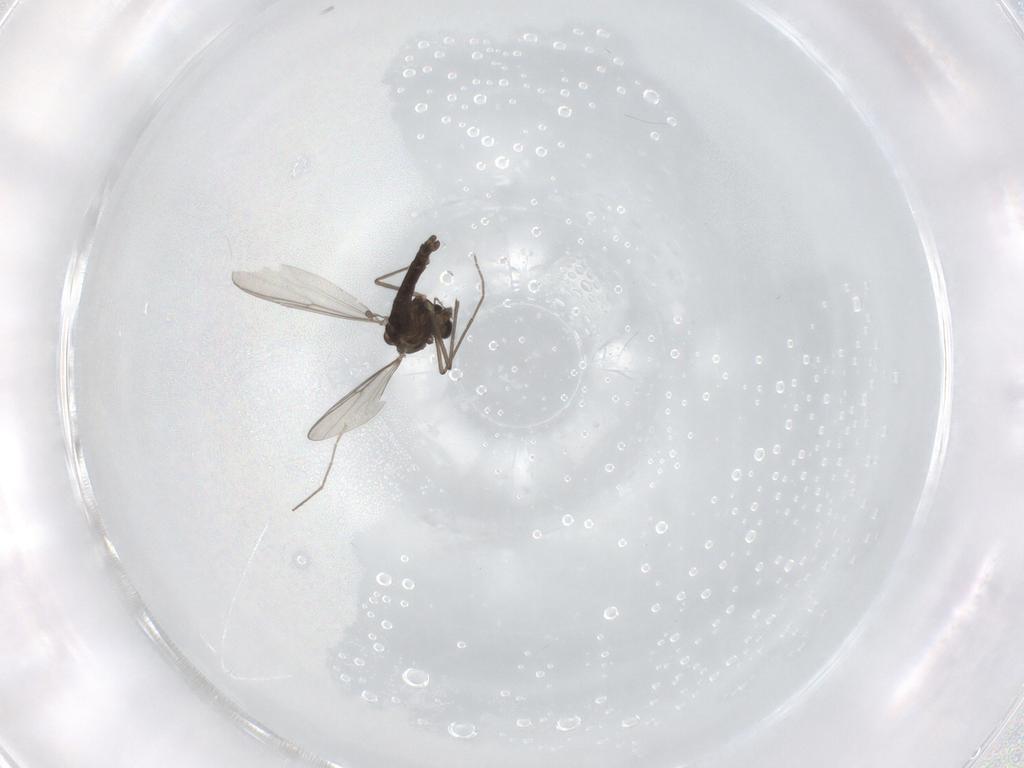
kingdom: Animalia
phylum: Arthropoda
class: Insecta
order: Diptera
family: Chironomidae
